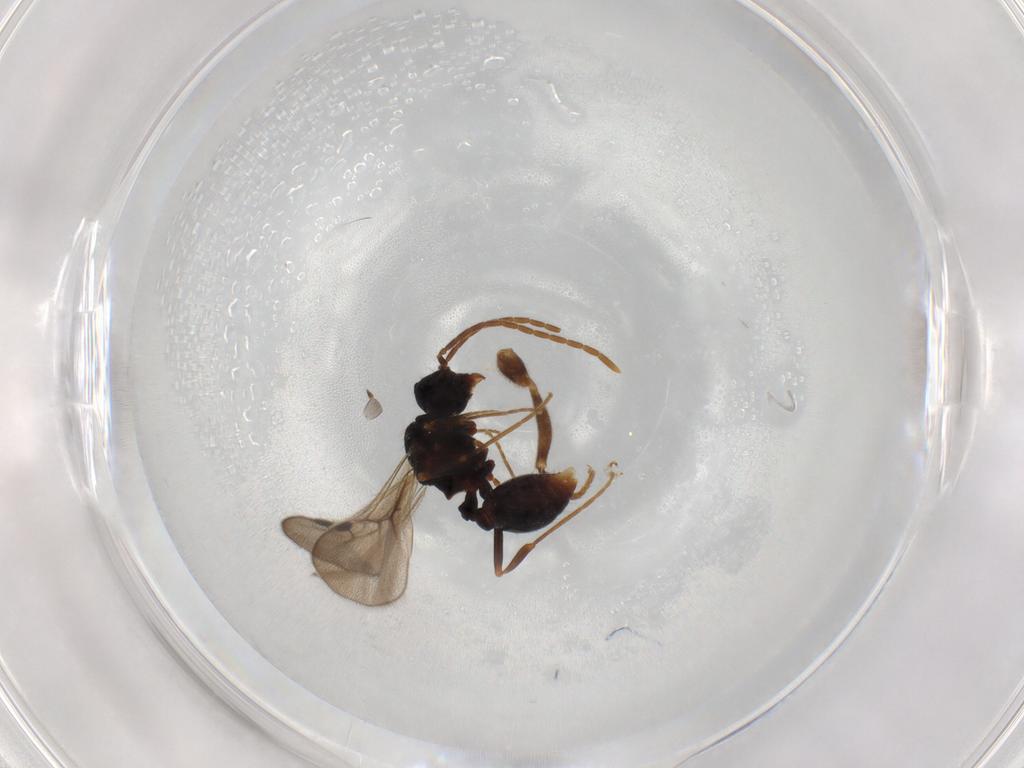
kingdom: Animalia
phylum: Arthropoda
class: Insecta
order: Hymenoptera
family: Formicidae
